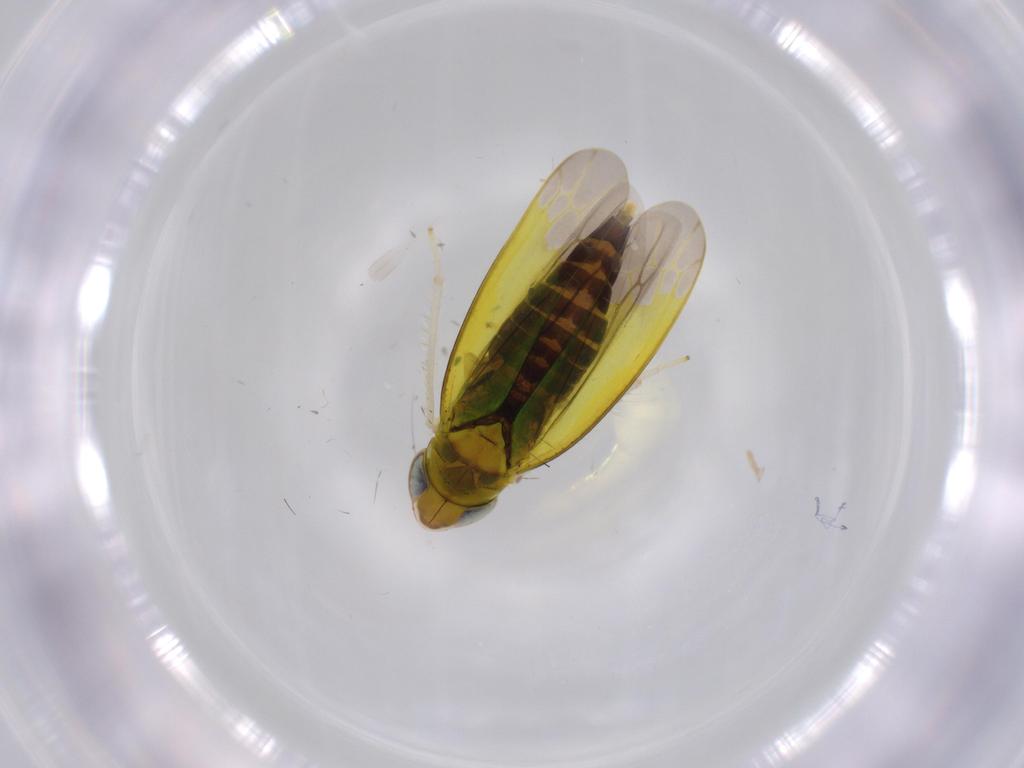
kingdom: Animalia
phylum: Arthropoda
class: Insecta
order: Hemiptera
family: Cicadellidae
